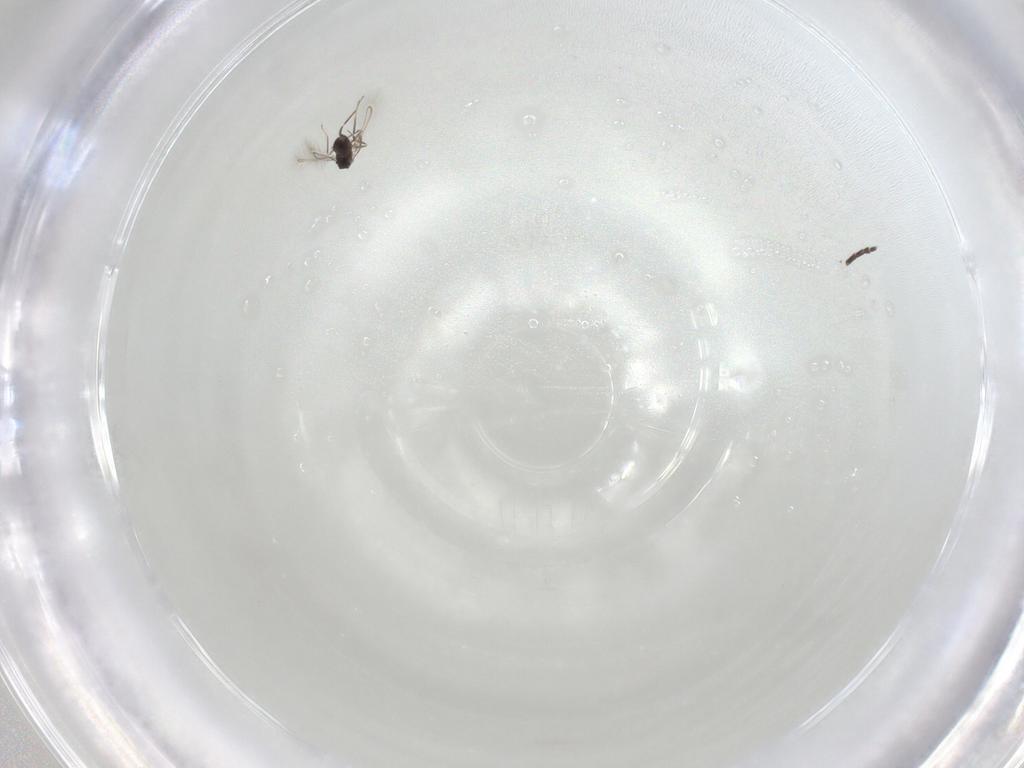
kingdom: Animalia
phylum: Arthropoda
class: Insecta
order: Hymenoptera
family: Mymaridae
